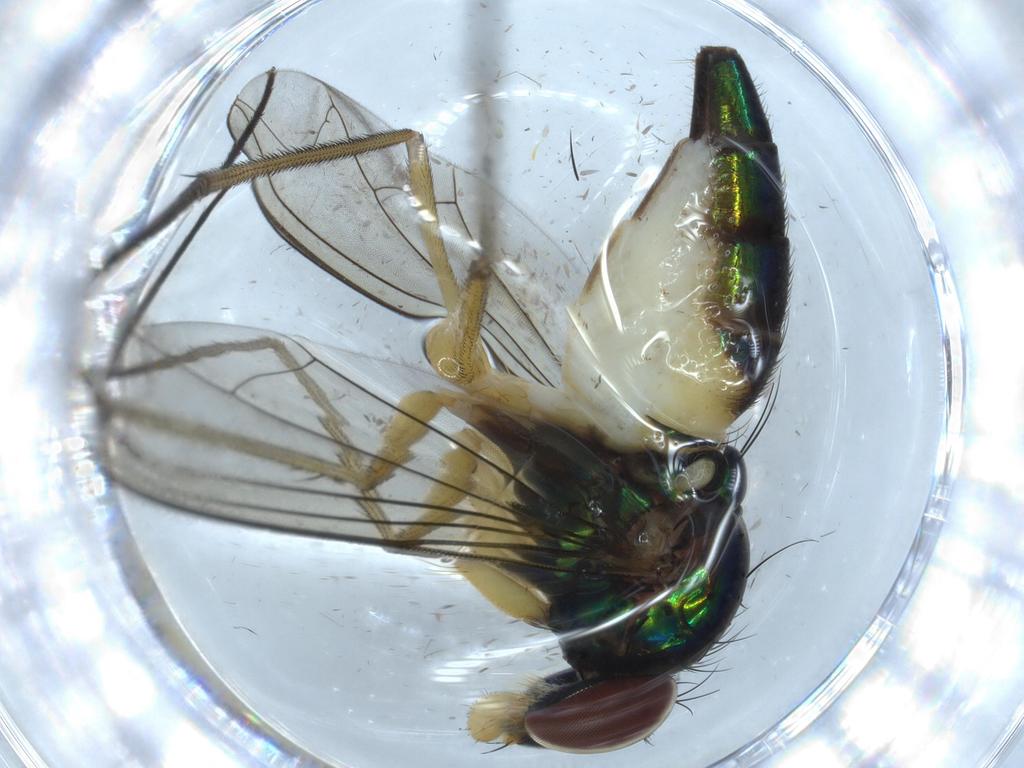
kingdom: Animalia
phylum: Arthropoda
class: Insecta
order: Diptera
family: Dolichopodidae
